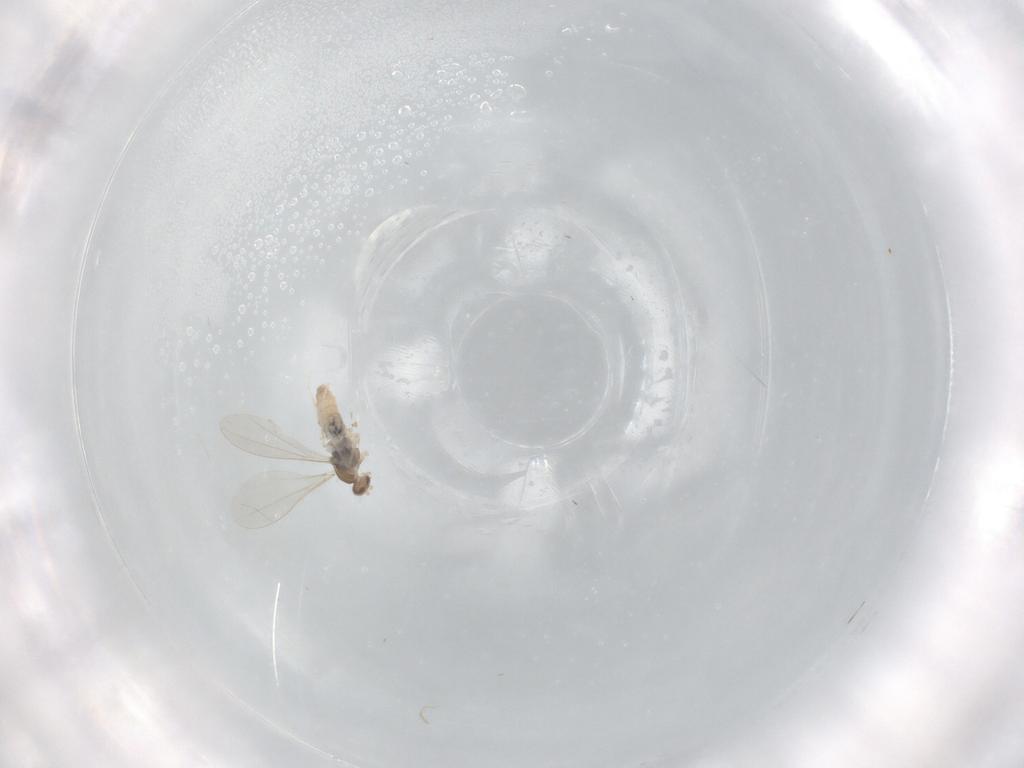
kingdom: Animalia
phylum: Arthropoda
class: Insecta
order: Diptera
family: Cecidomyiidae
